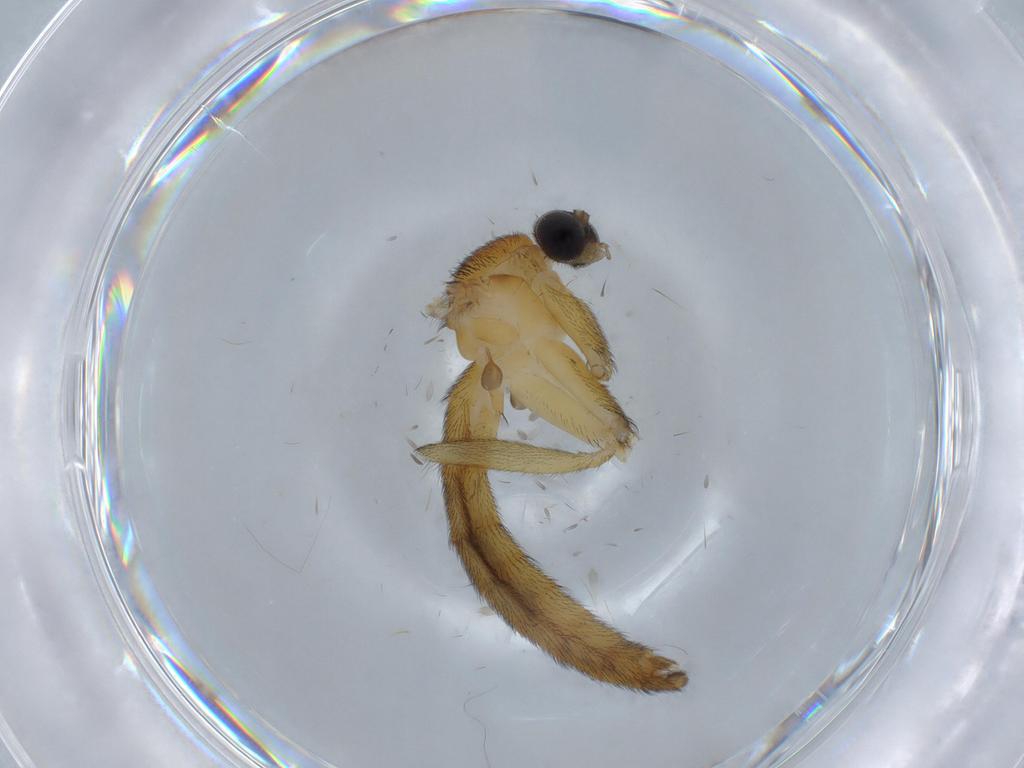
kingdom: Animalia
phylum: Arthropoda
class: Insecta
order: Diptera
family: Sciaridae
